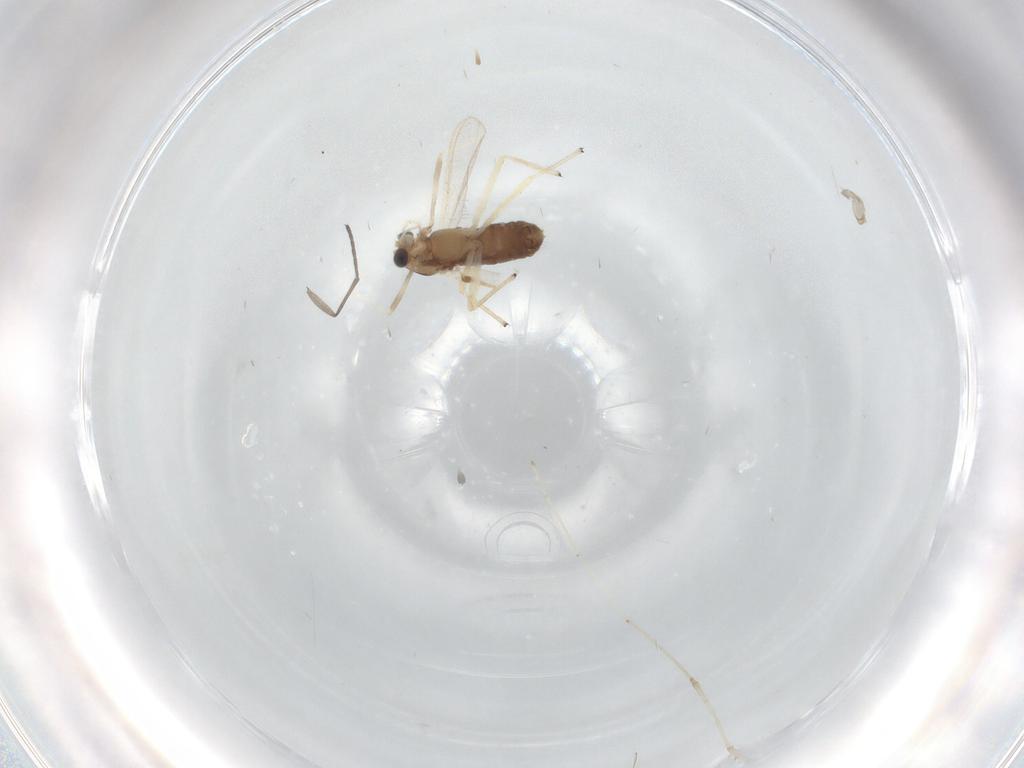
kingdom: Animalia
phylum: Arthropoda
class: Insecta
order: Diptera
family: Chironomidae
